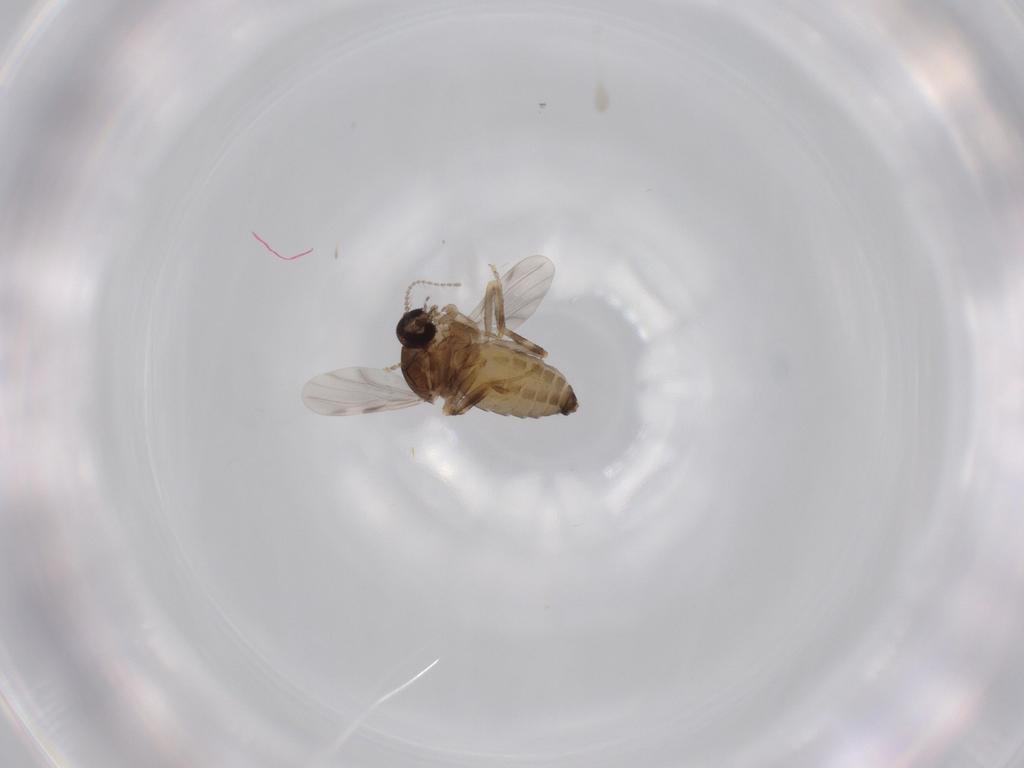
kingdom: Animalia
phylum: Arthropoda
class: Insecta
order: Diptera
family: Ceratopogonidae
